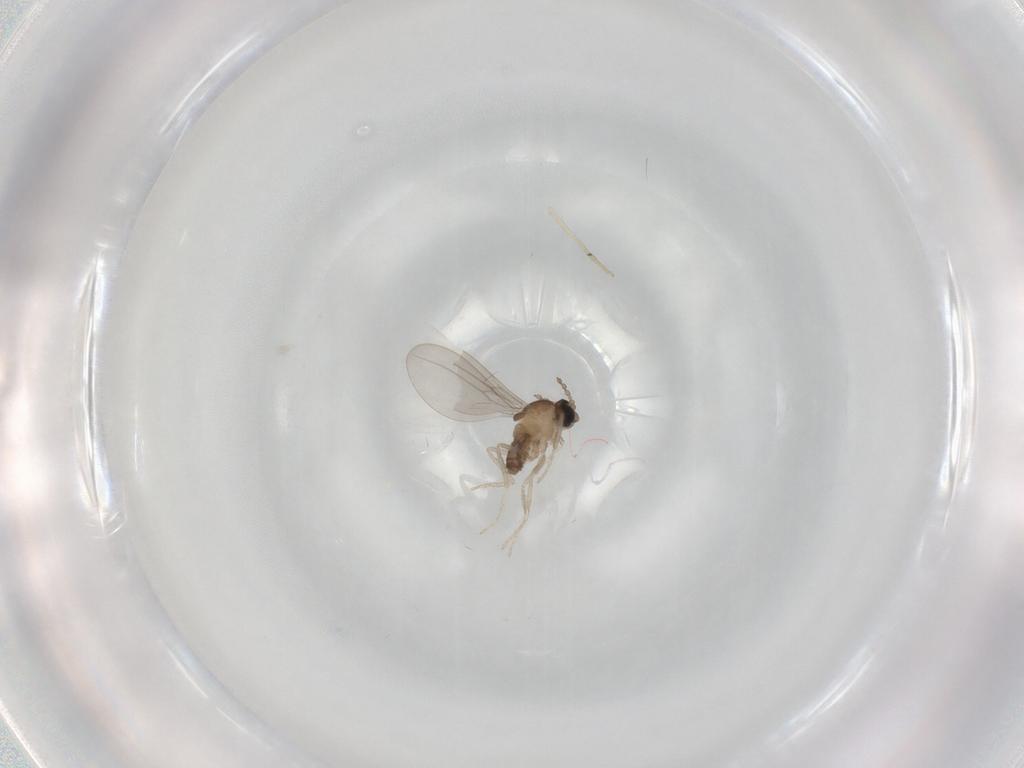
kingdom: Animalia
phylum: Arthropoda
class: Insecta
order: Diptera
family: Cecidomyiidae
